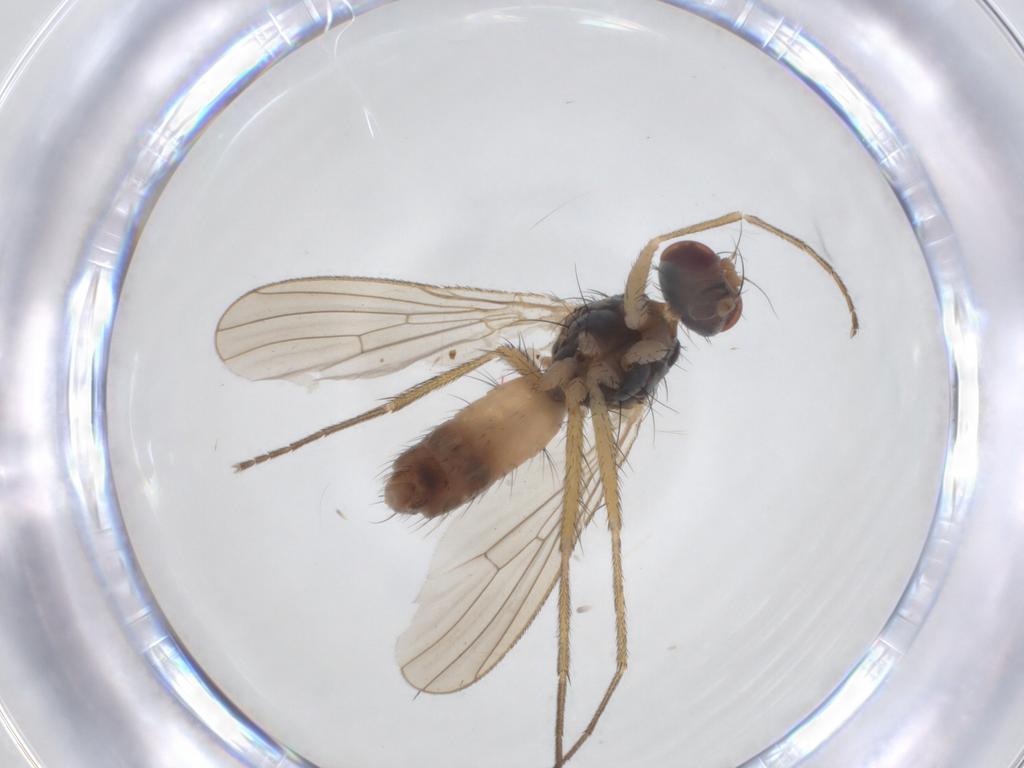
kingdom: Animalia
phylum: Arthropoda
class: Insecta
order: Diptera
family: Muscidae
